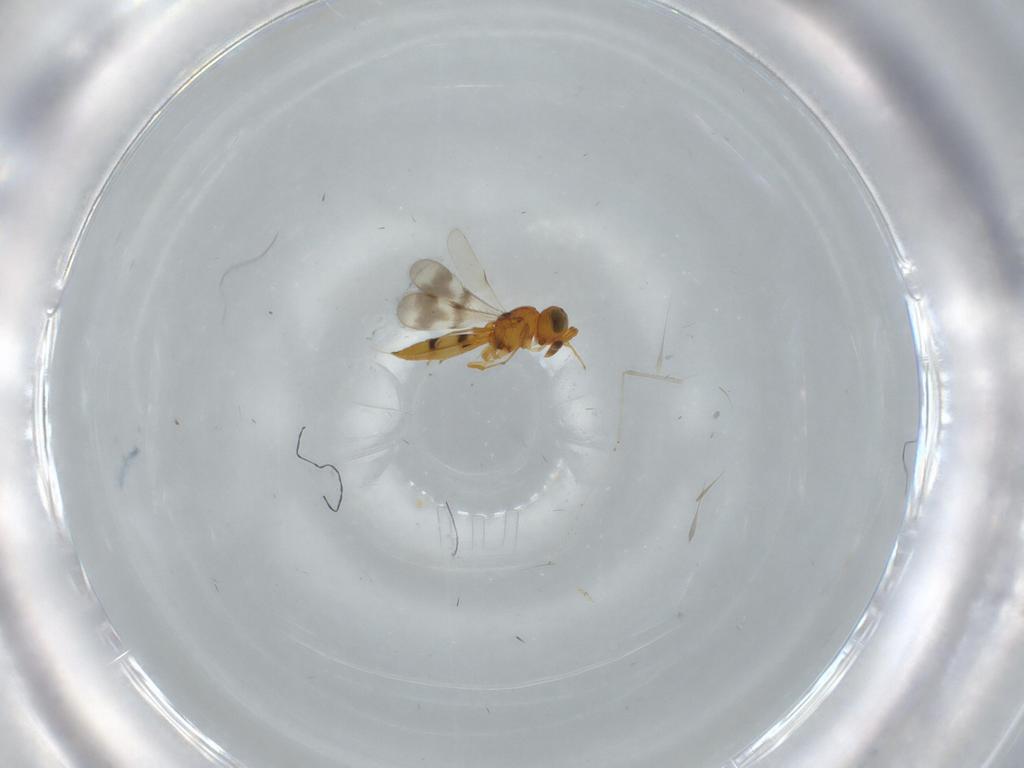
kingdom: Animalia
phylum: Arthropoda
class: Insecta
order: Hymenoptera
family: Scelionidae
